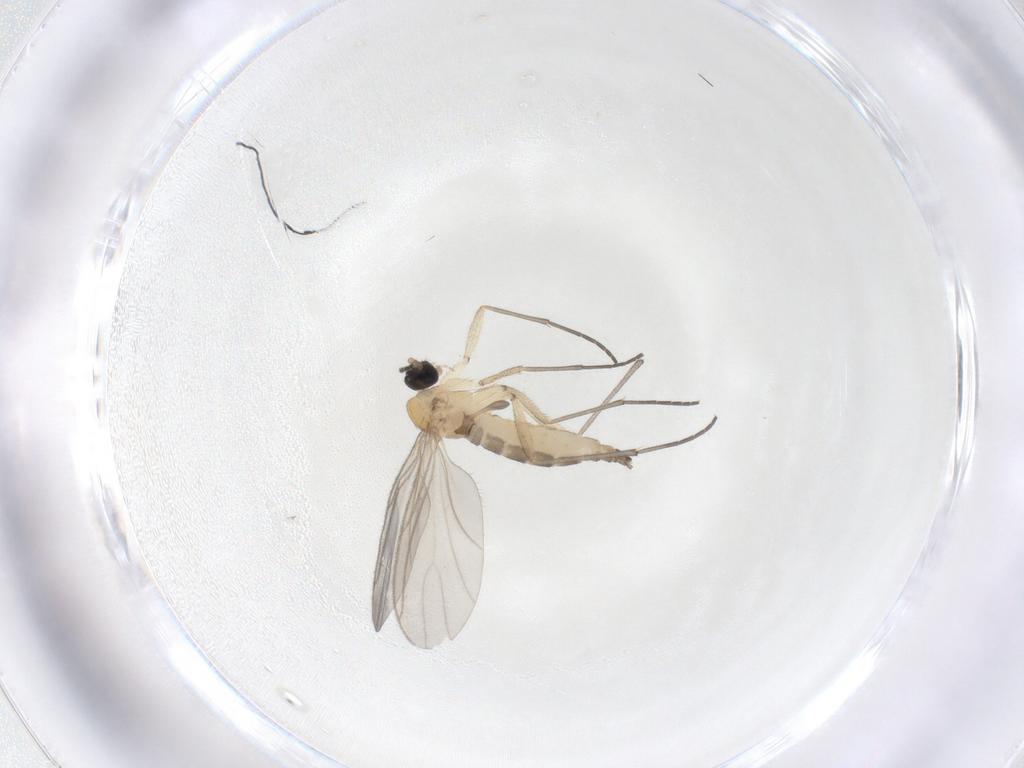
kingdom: Animalia
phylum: Arthropoda
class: Insecta
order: Diptera
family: Sciaridae
